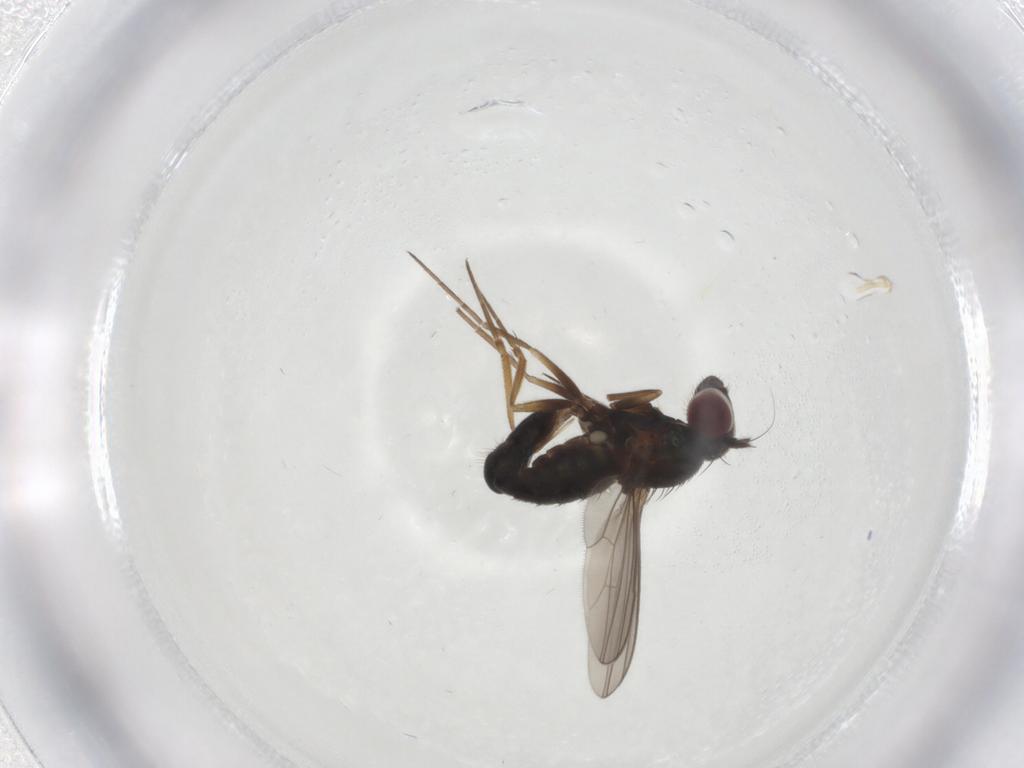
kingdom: Animalia
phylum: Arthropoda
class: Insecta
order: Diptera
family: Dolichopodidae
